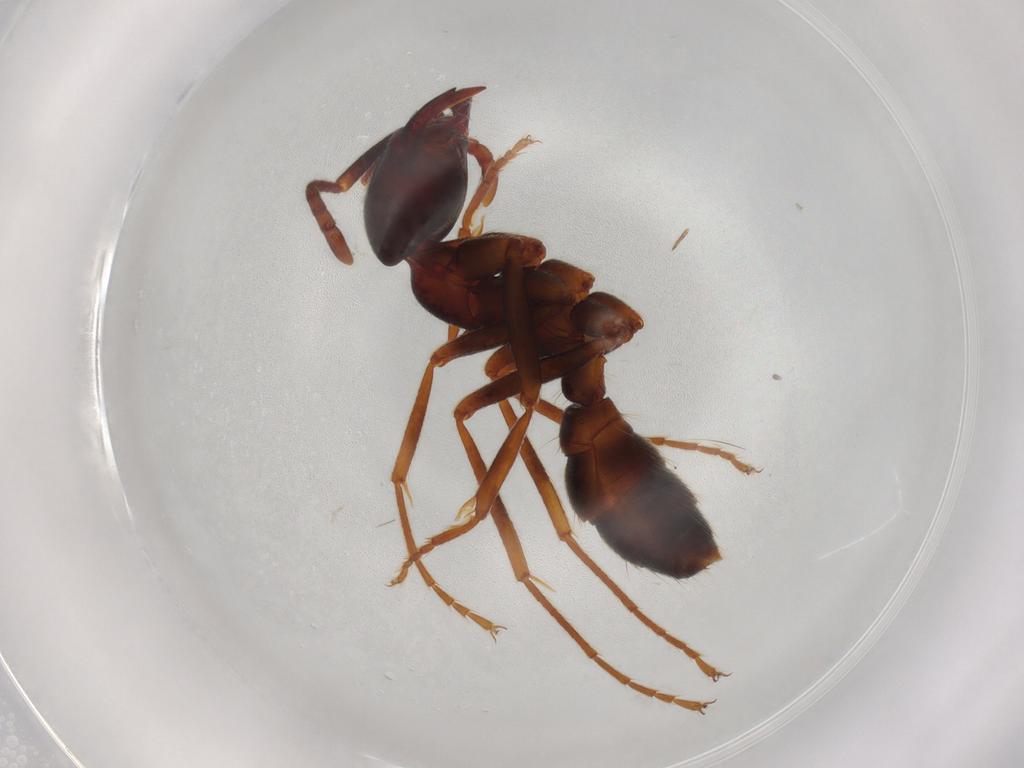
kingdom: Animalia
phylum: Arthropoda
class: Insecta
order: Hymenoptera
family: Formicidae
